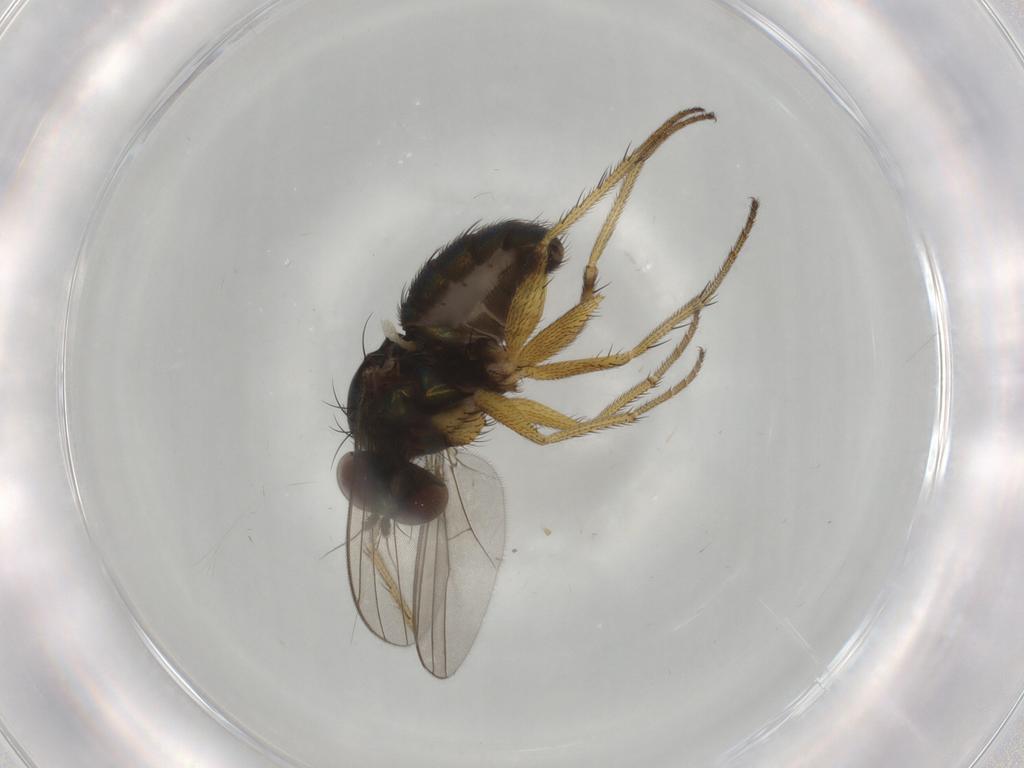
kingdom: Animalia
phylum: Arthropoda
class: Insecta
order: Diptera
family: Dolichopodidae
